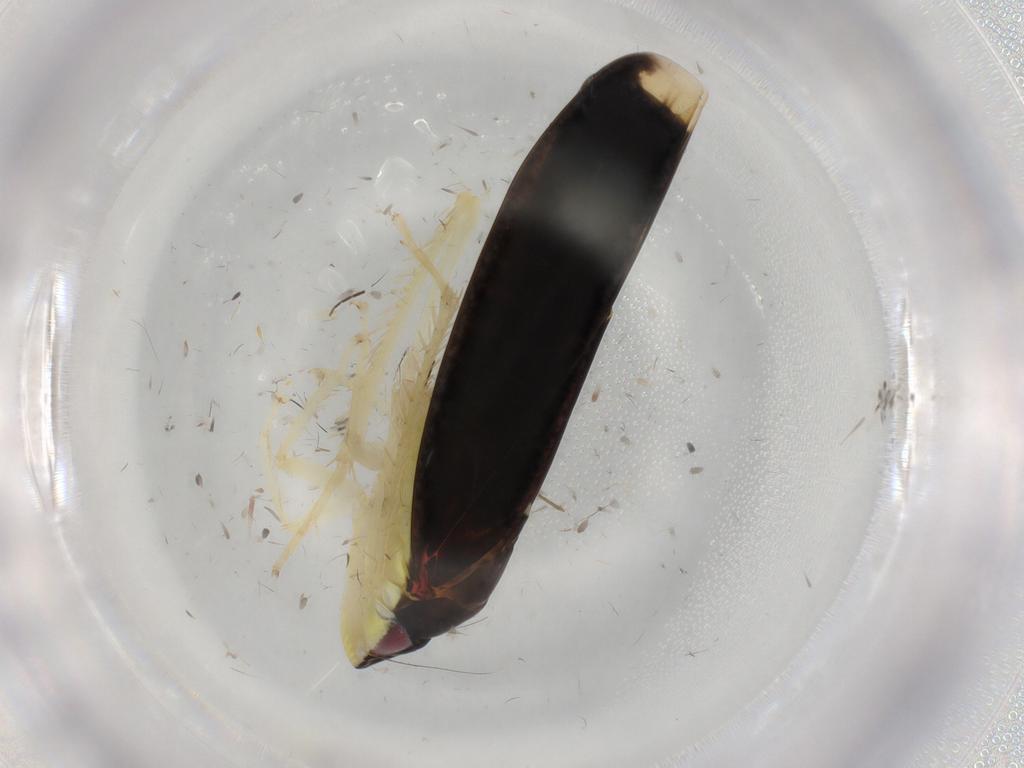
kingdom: Animalia
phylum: Arthropoda
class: Insecta
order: Hemiptera
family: Cicadellidae
